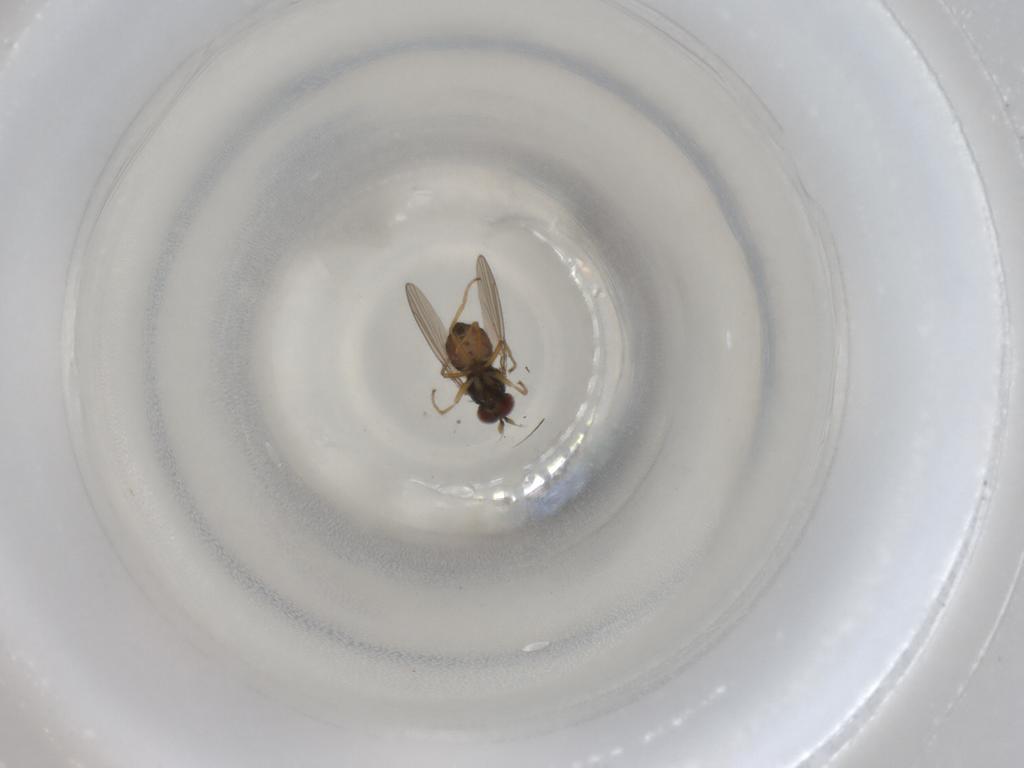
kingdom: Animalia
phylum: Arthropoda
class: Insecta
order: Diptera
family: Ephydridae
